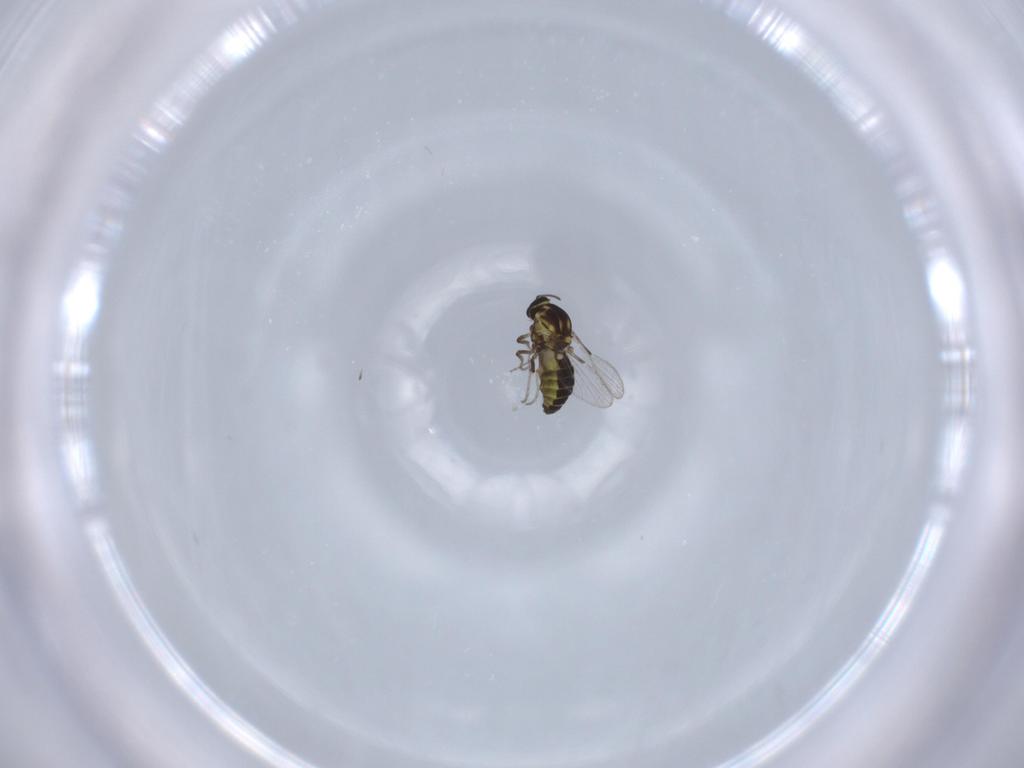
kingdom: Animalia
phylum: Arthropoda
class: Insecta
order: Diptera
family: Ceratopogonidae
